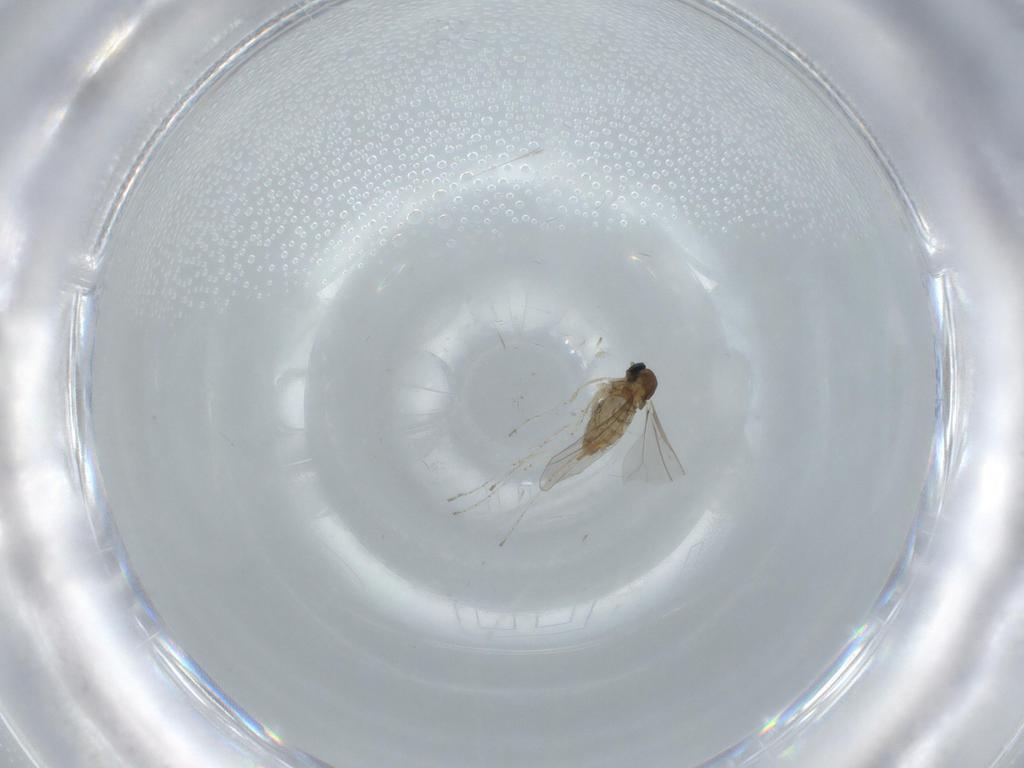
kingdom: Animalia
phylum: Arthropoda
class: Insecta
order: Diptera
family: Cecidomyiidae
